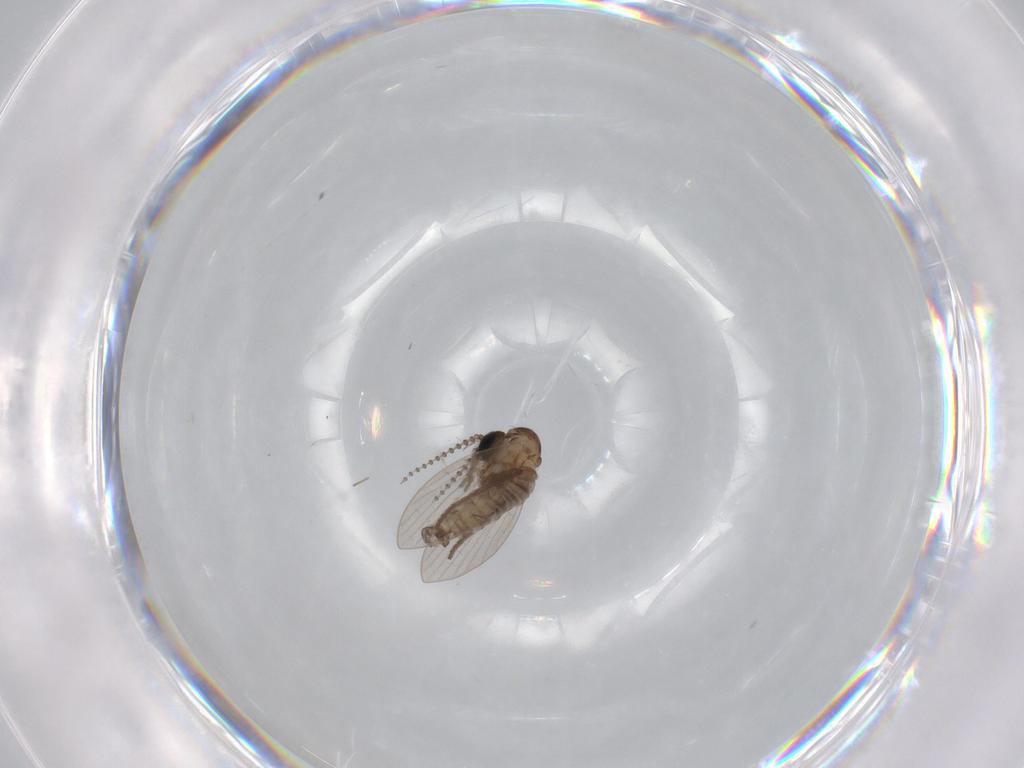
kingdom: Animalia
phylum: Arthropoda
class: Insecta
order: Diptera
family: Psychodidae
